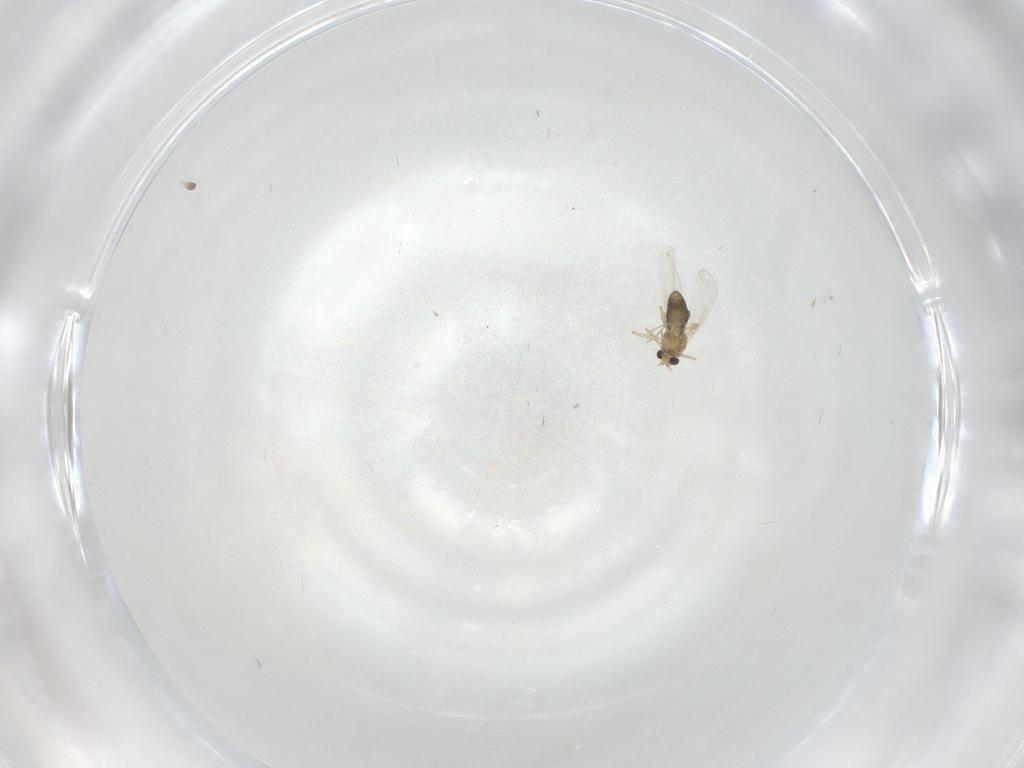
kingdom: Animalia
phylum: Arthropoda
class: Insecta
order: Diptera
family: Chironomidae
